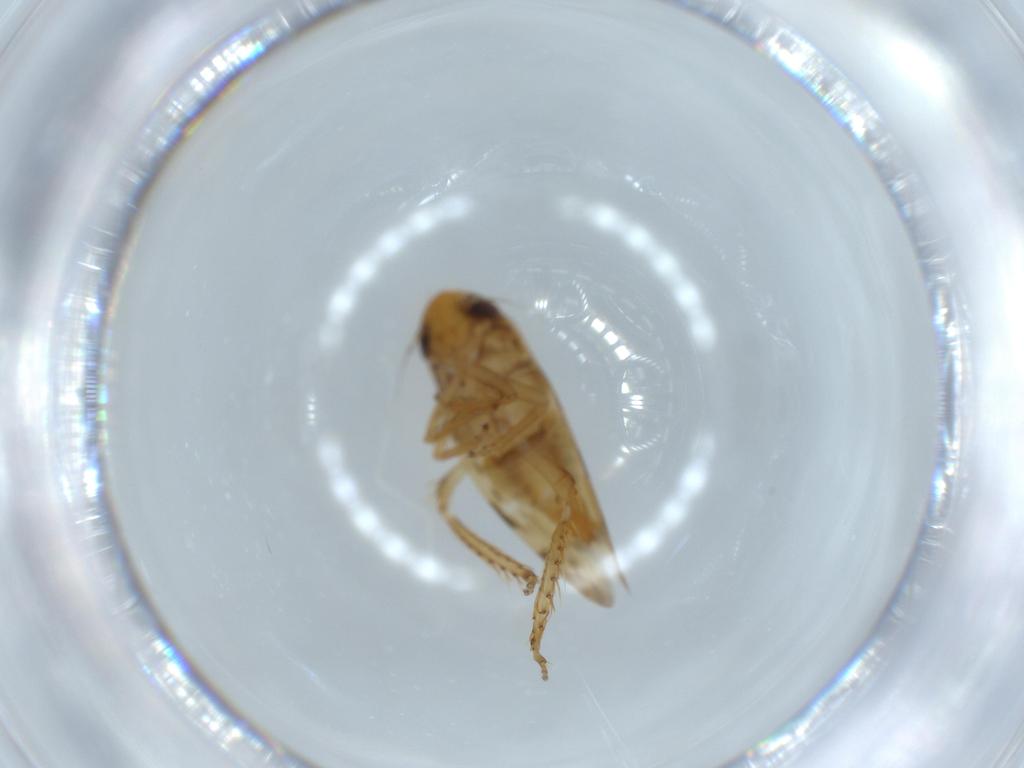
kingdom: Animalia
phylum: Arthropoda
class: Insecta
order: Hemiptera
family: Cicadellidae
